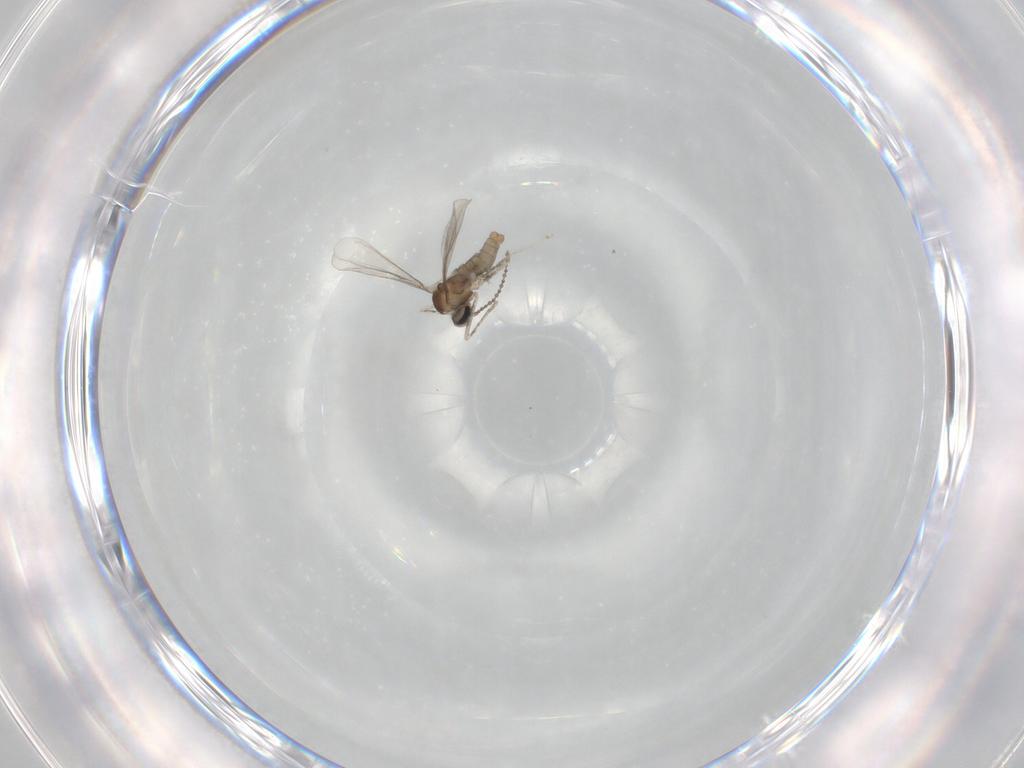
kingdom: Animalia
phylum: Arthropoda
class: Insecta
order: Diptera
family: Cecidomyiidae
